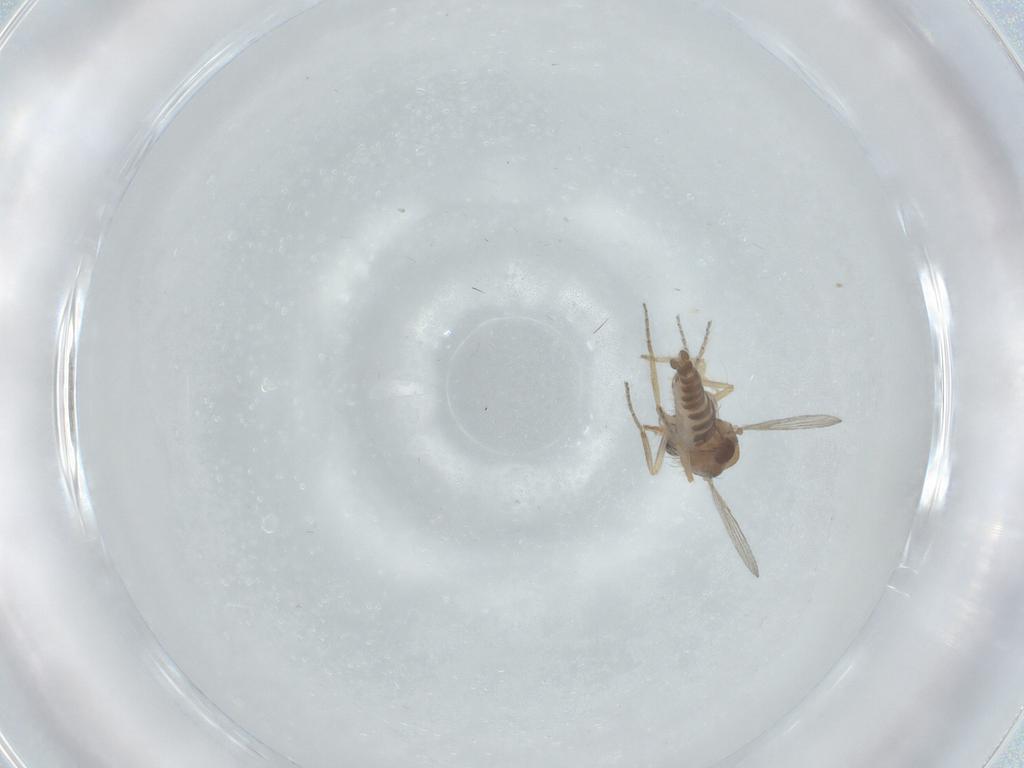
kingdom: Animalia
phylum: Arthropoda
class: Insecta
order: Diptera
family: Ceratopogonidae
